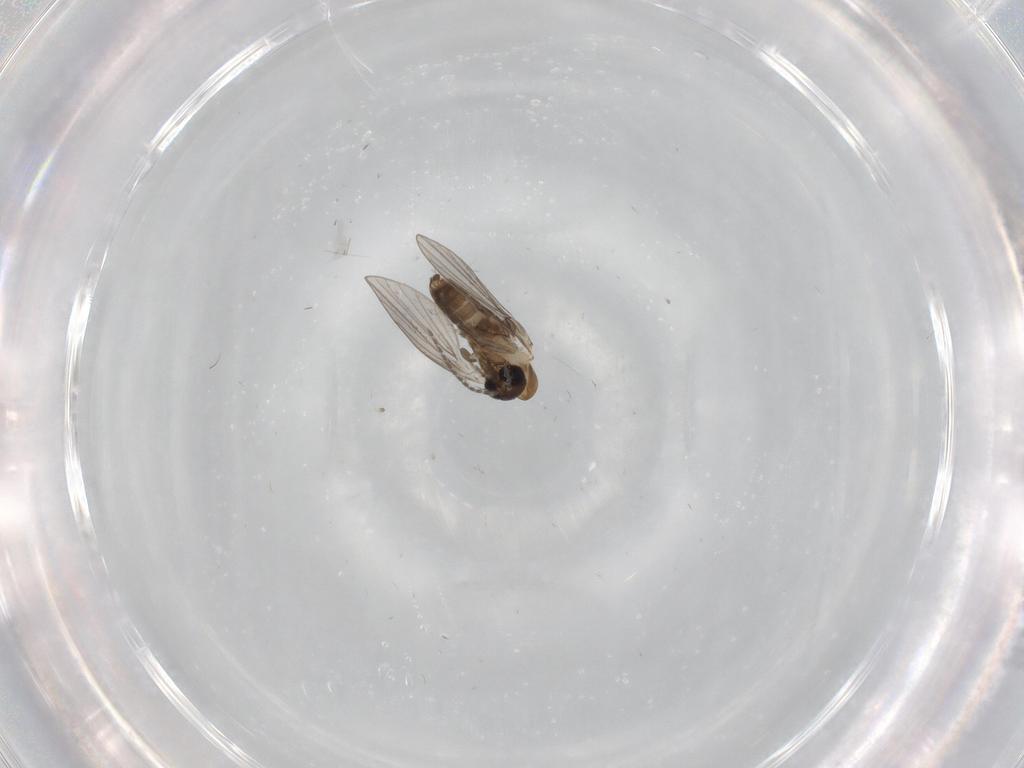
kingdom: Animalia
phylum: Arthropoda
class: Insecta
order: Diptera
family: Psychodidae
